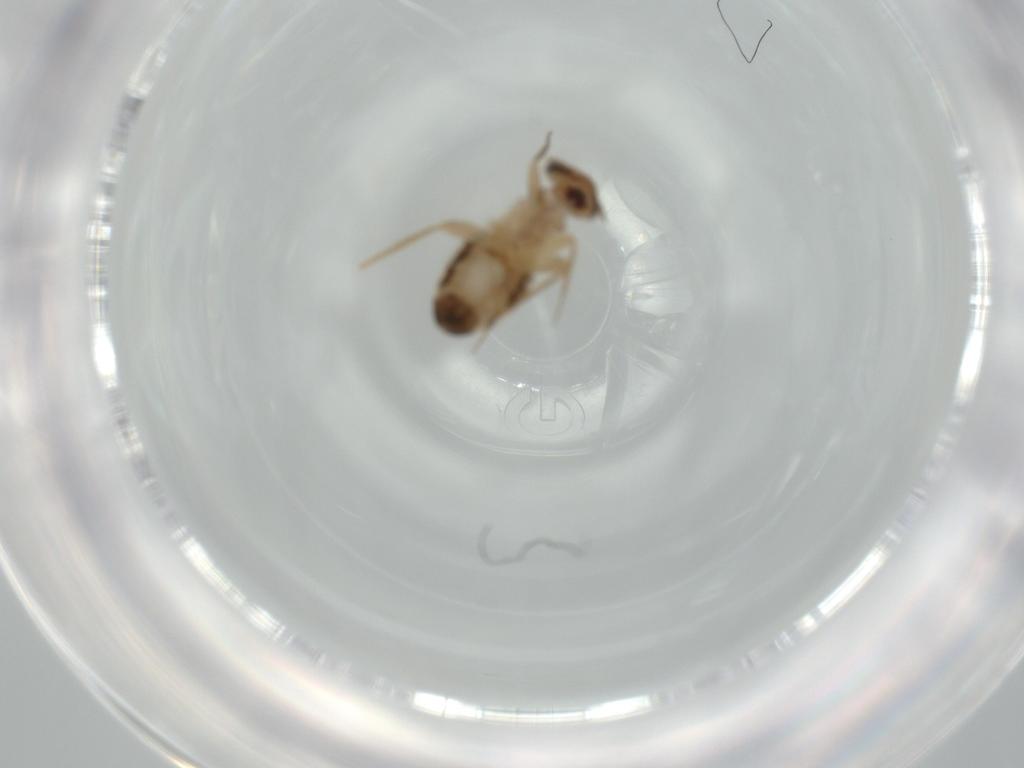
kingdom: Animalia
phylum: Arthropoda
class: Insecta
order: Psocodea
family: Lepidopsocidae
